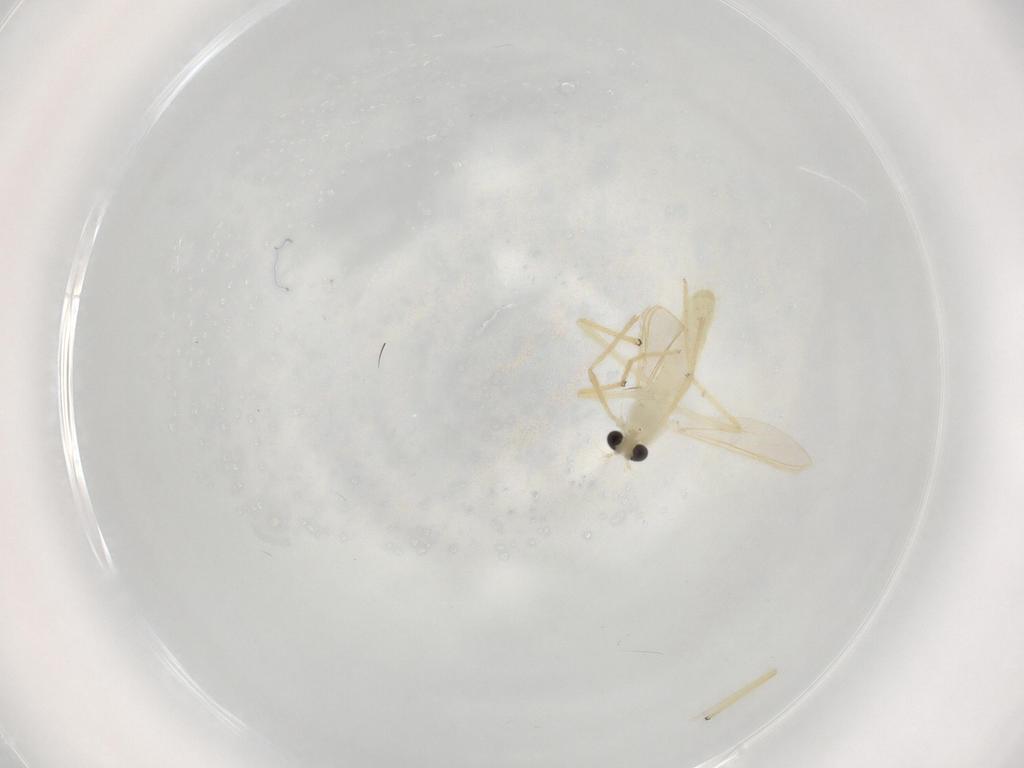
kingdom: Animalia
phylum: Arthropoda
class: Insecta
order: Diptera
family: Chironomidae
